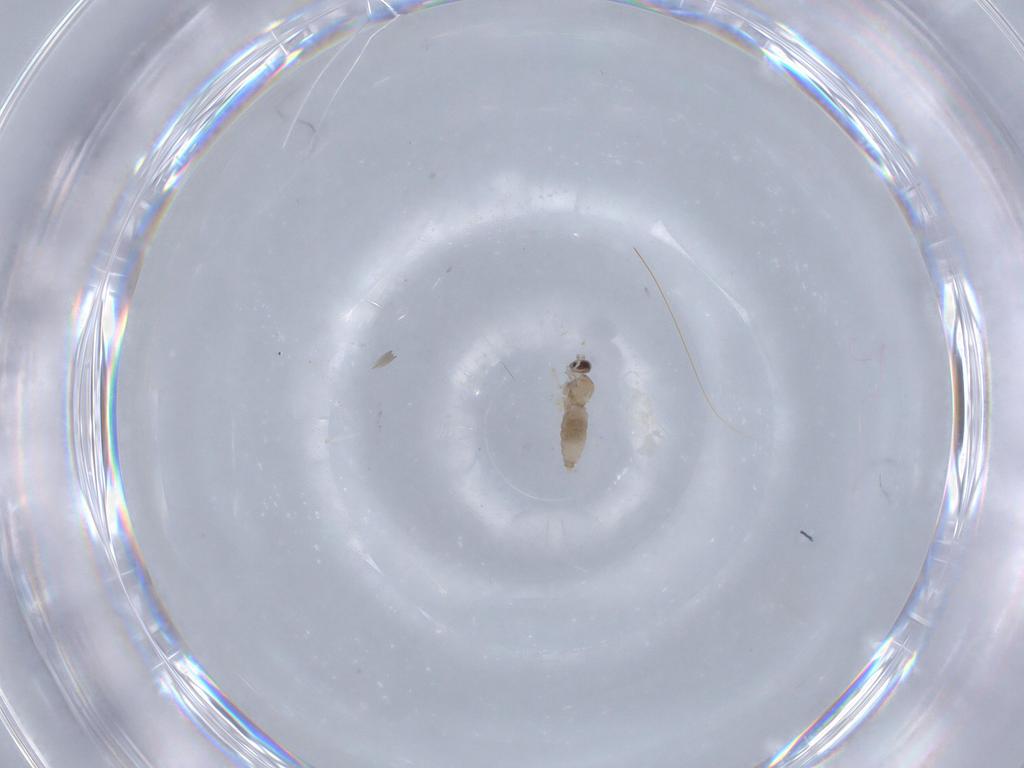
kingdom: Animalia
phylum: Arthropoda
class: Insecta
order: Diptera
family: Cecidomyiidae
